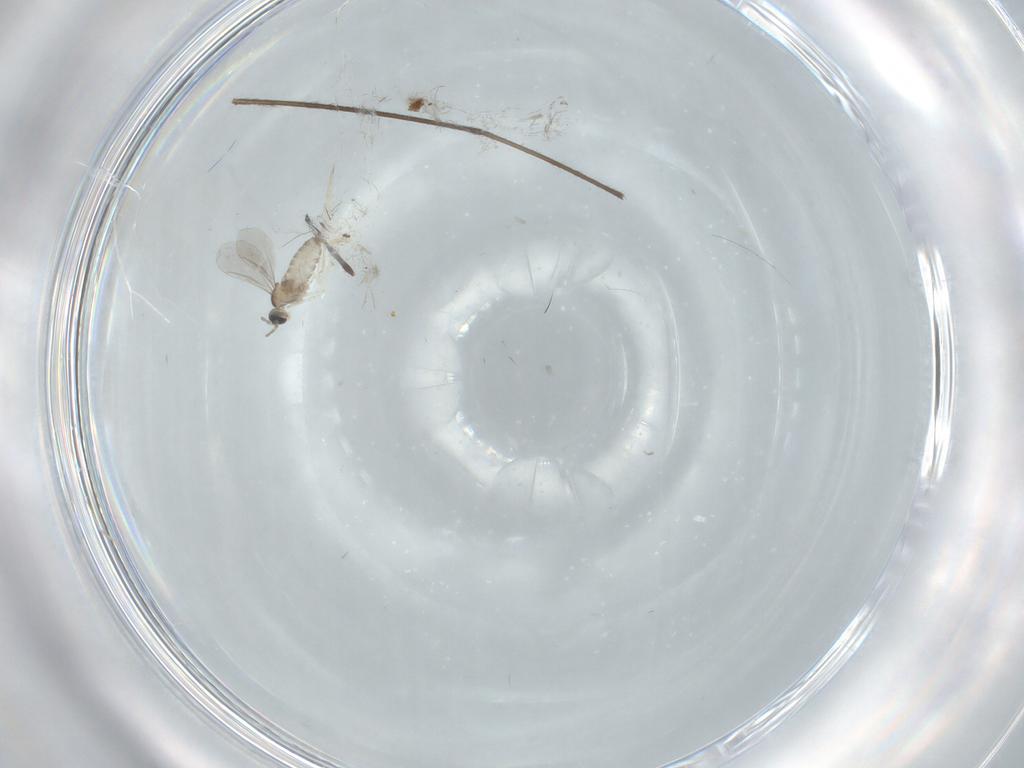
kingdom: Animalia
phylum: Arthropoda
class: Insecta
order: Diptera
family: Chironomidae
